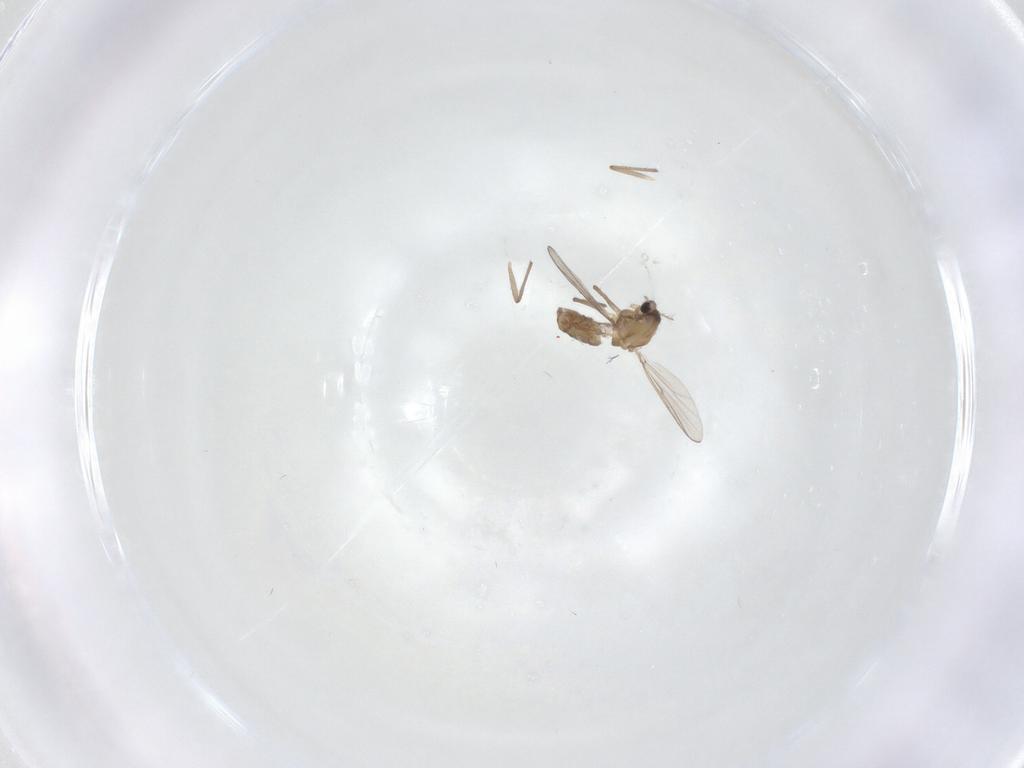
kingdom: Animalia
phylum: Arthropoda
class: Insecta
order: Diptera
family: Chironomidae
